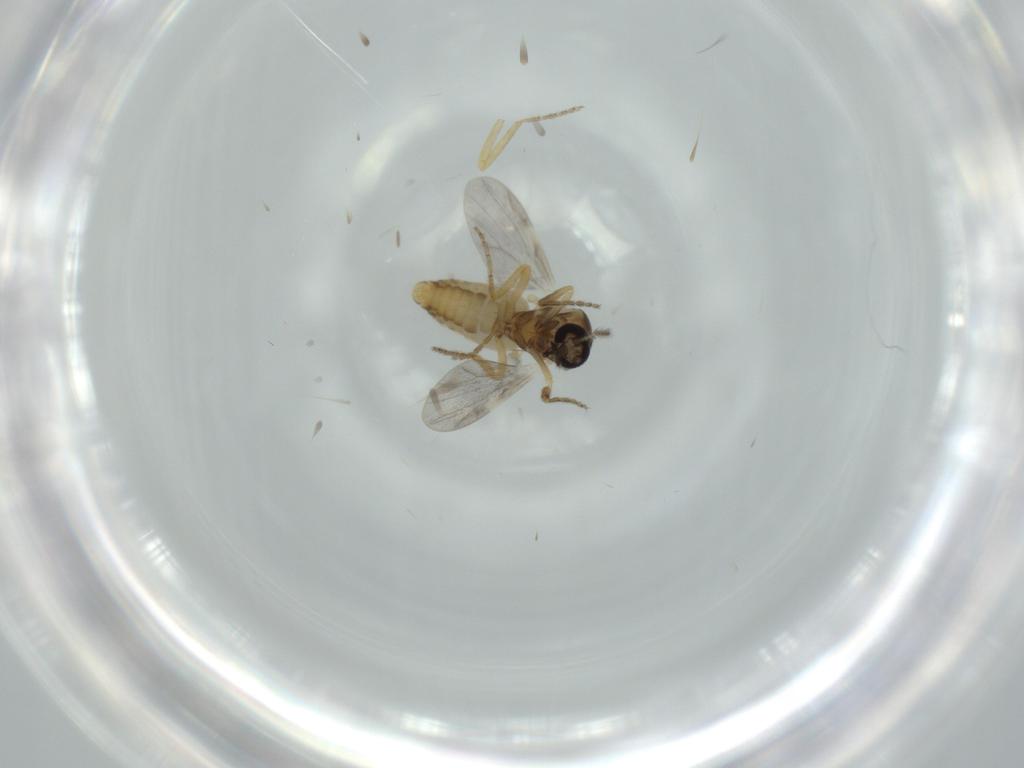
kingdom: Animalia
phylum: Arthropoda
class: Insecta
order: Diptera
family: Ceratopogonidae
